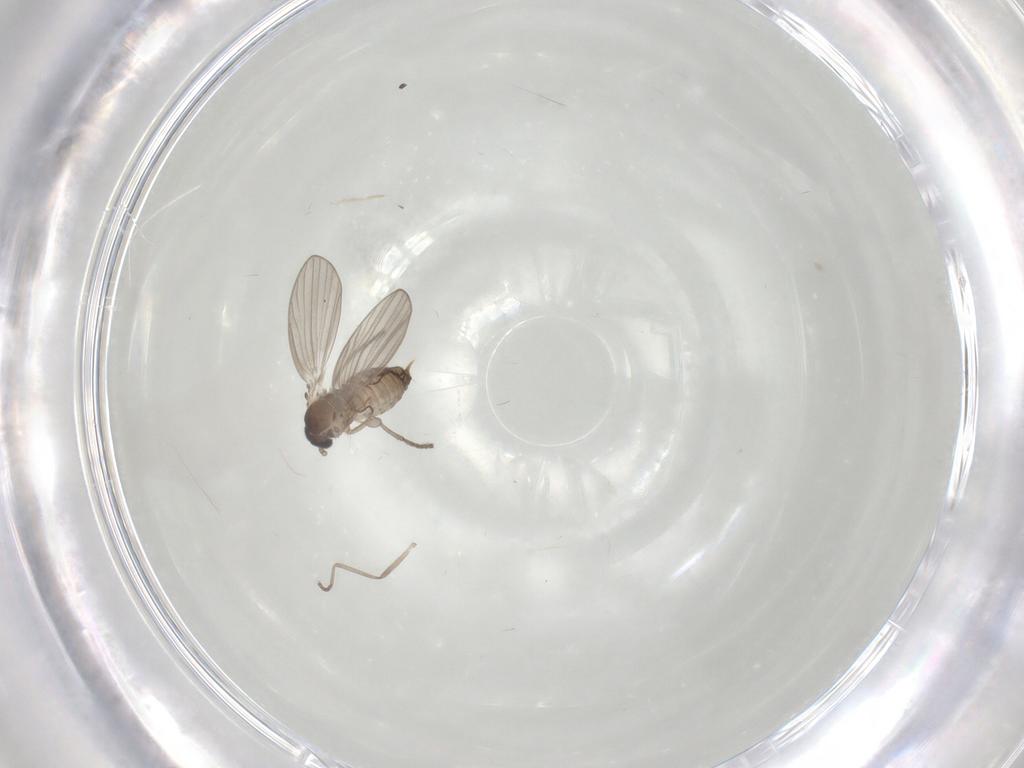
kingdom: Animalia
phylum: Arthropoda
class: Insecta
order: Diptera
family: Psychodidae
